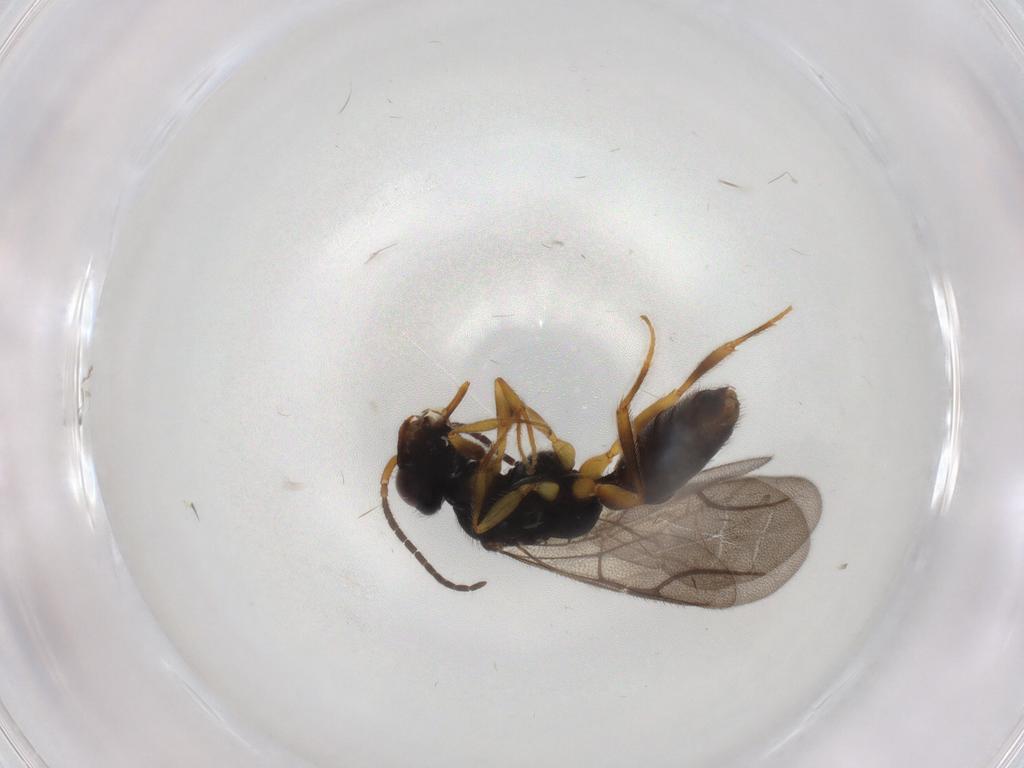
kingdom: Animalia
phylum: Arthropoda
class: Insecta
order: Hymenoptera
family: Bethylidae
